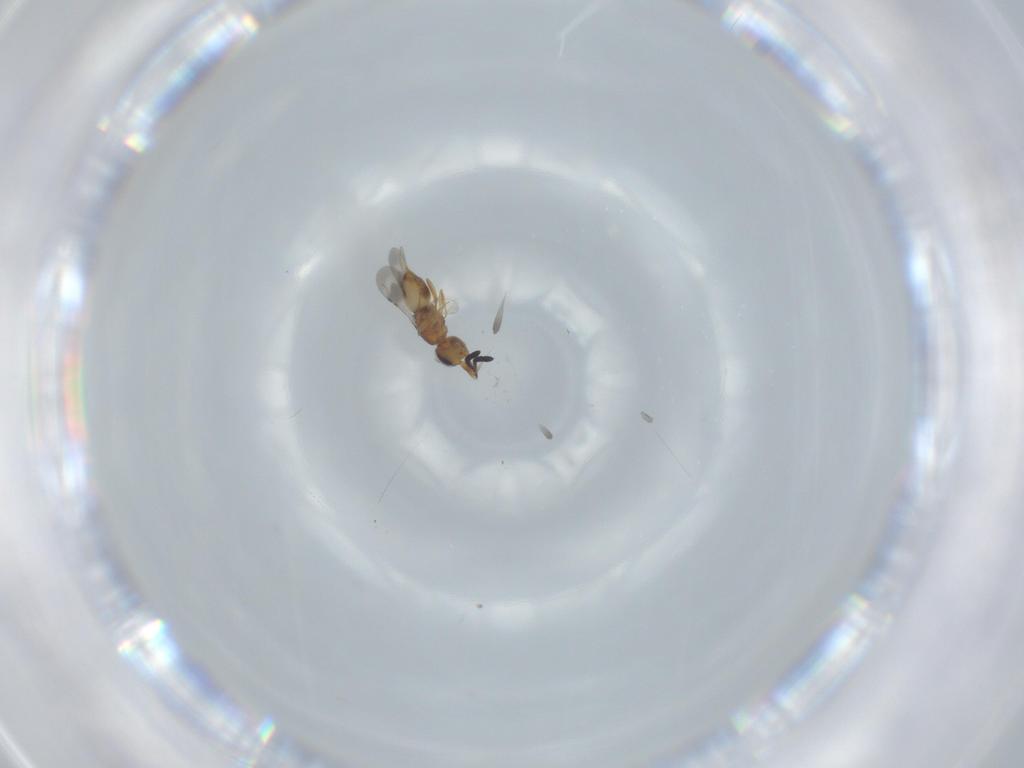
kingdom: Animalia
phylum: Arthropoda
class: Insecta
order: Hymenoptera
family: Ceraphronidae
